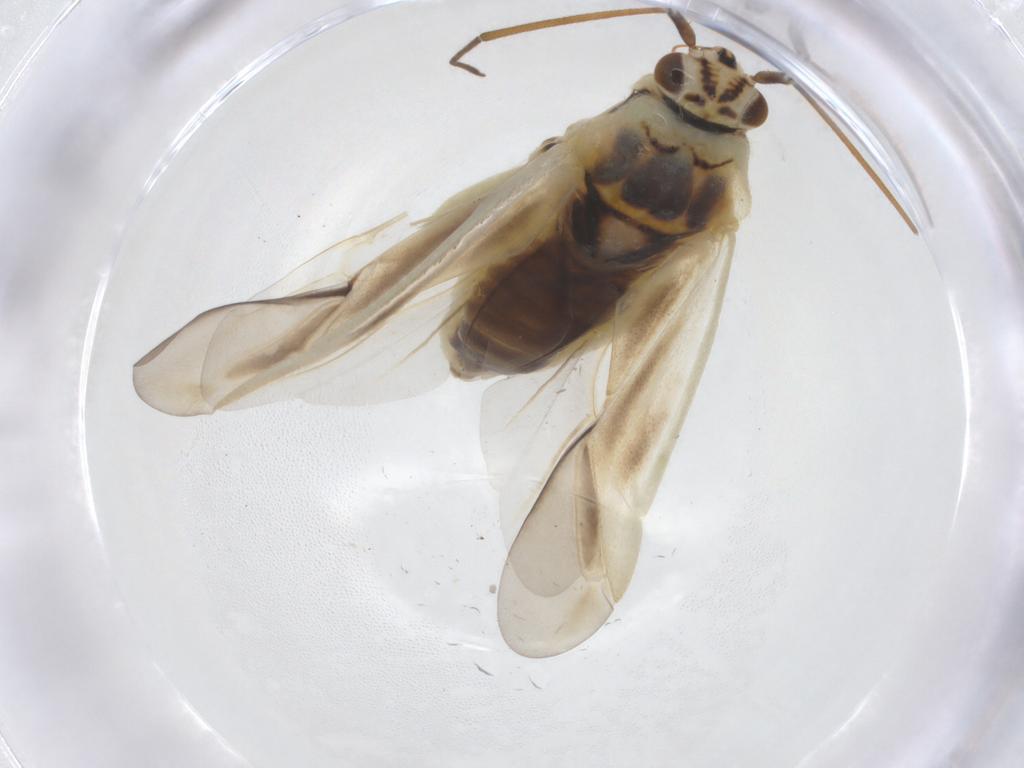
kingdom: Animalia
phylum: Arthropoda
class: Insecta
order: Hemiptera
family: Miridae
